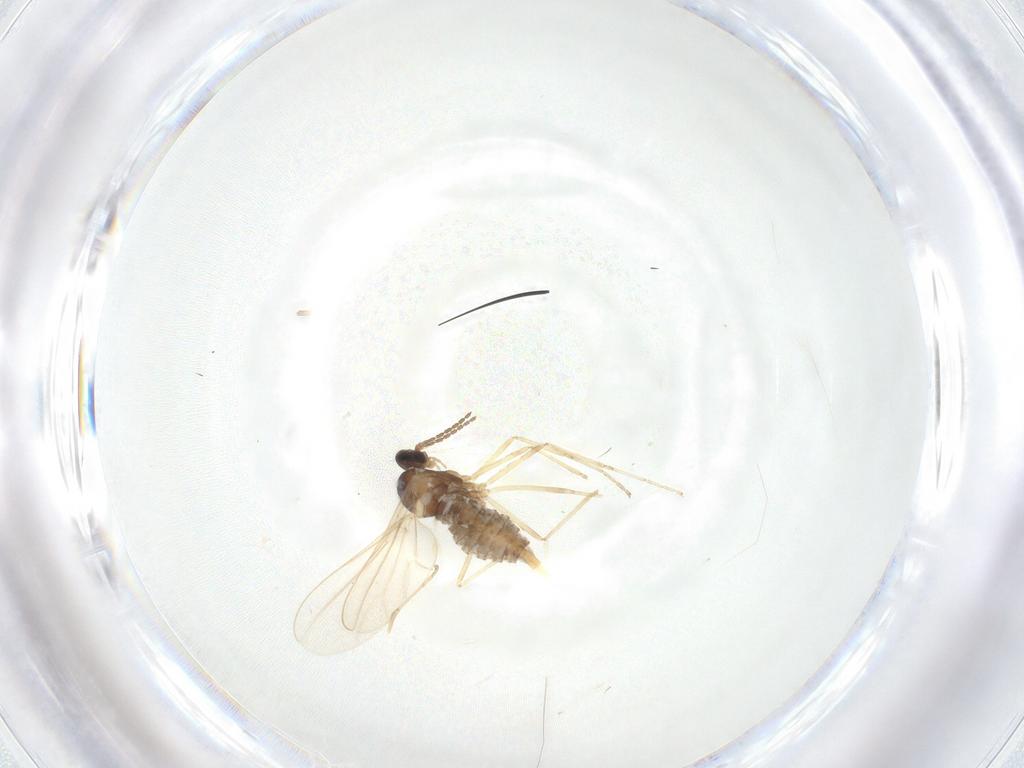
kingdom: Animalia
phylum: Arthropoda
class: Insecta
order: Diptera
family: Cecidomyiidae
